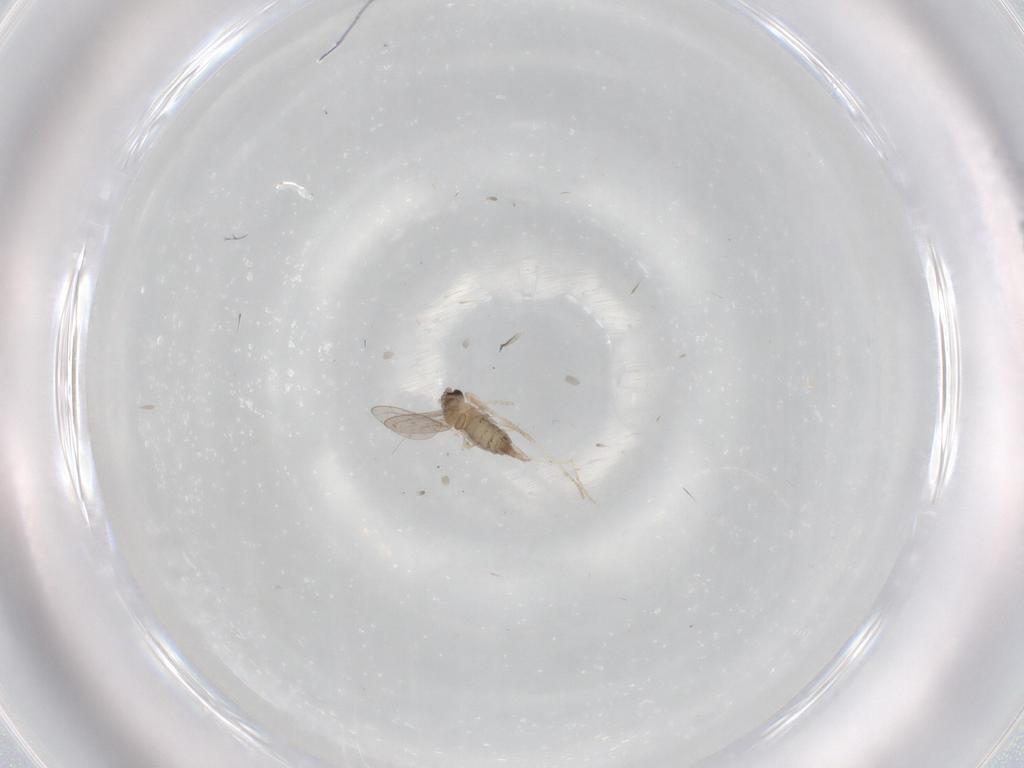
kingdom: Animalia
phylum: Arthropoda
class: Insecta
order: Diptera
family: Cecidomyiidae
